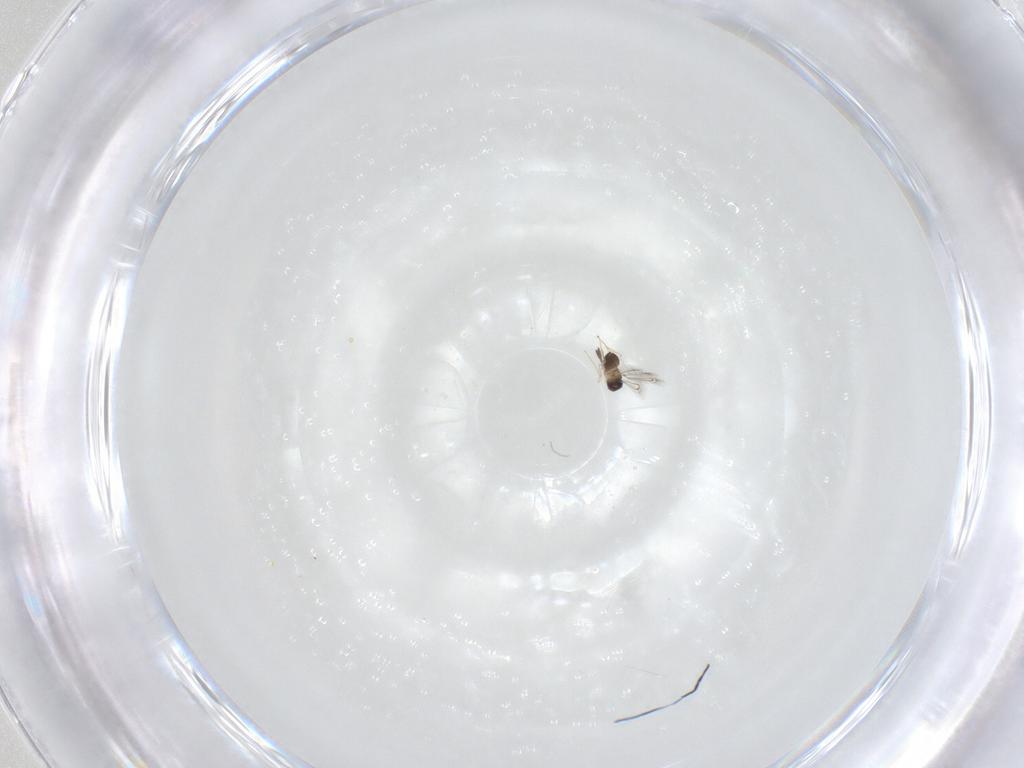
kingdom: Animalia
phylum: Arthropoda
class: Insecta
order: Hymenoptera
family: Mymaridae
